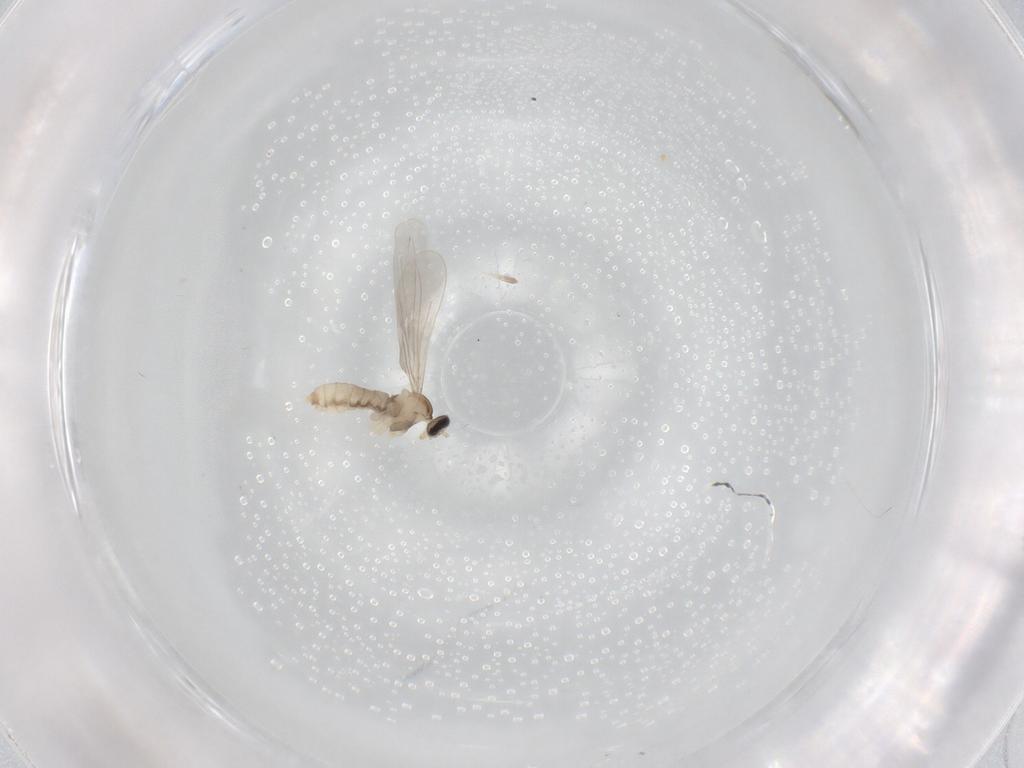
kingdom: Animalia
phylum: Arthropoda
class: Insecta
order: Diptera
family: Cecidomyiidae
